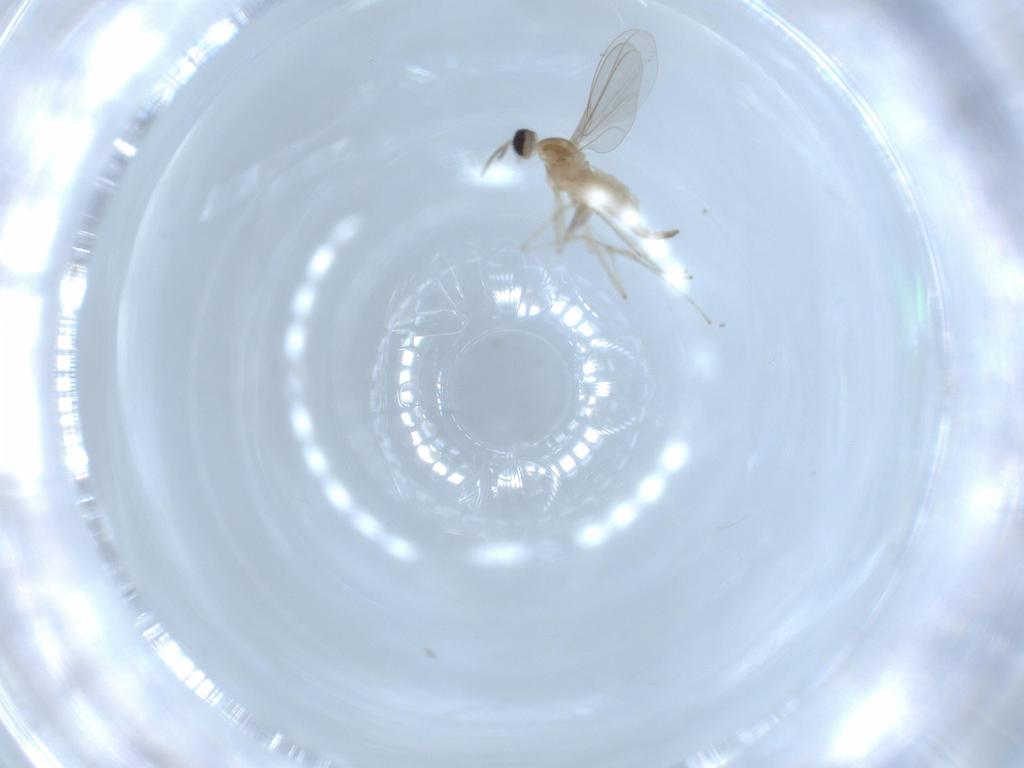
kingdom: Animalia
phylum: Arthropoda
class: Insecta
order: Diptera
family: Cecidomyiidae
